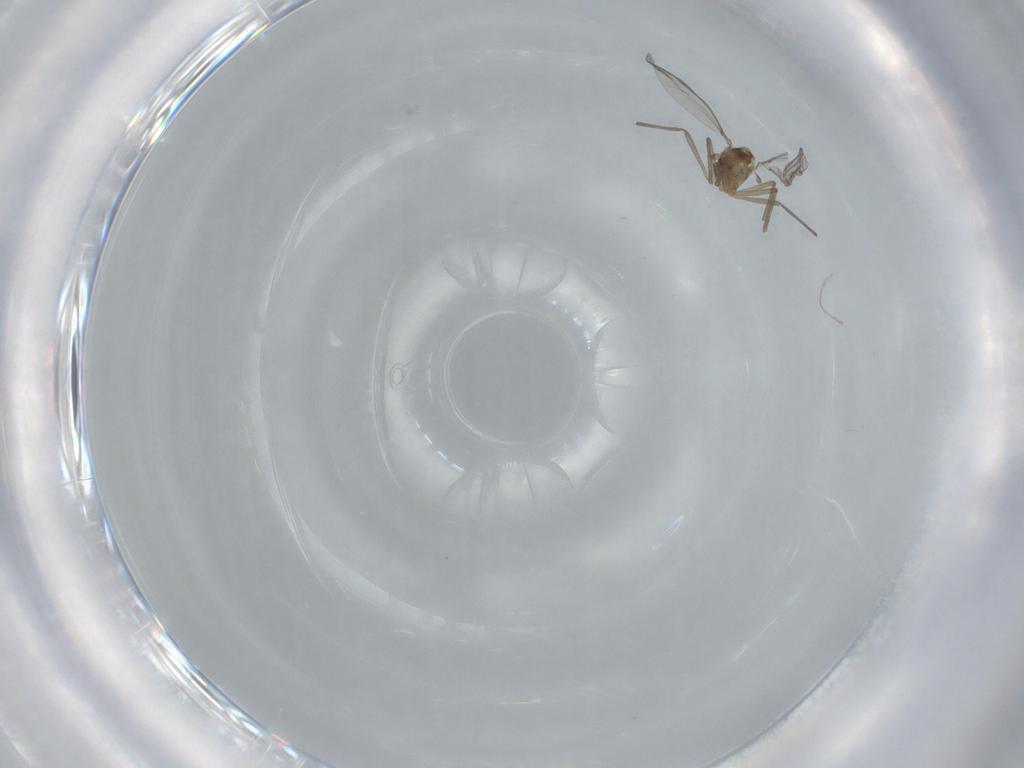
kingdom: Animalia
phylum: Arthropoda
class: Insecta
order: Diptera
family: Chironomidae
